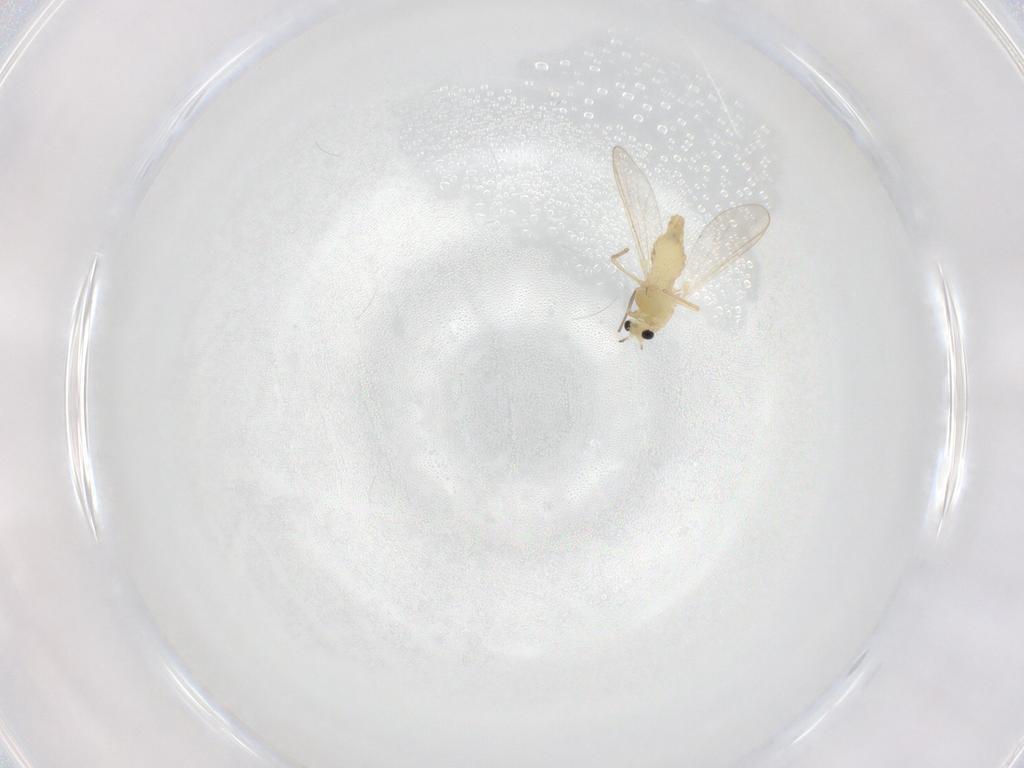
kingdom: Animalia
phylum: Arthropoda
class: Insecta
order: Diptera
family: Chironomidae
